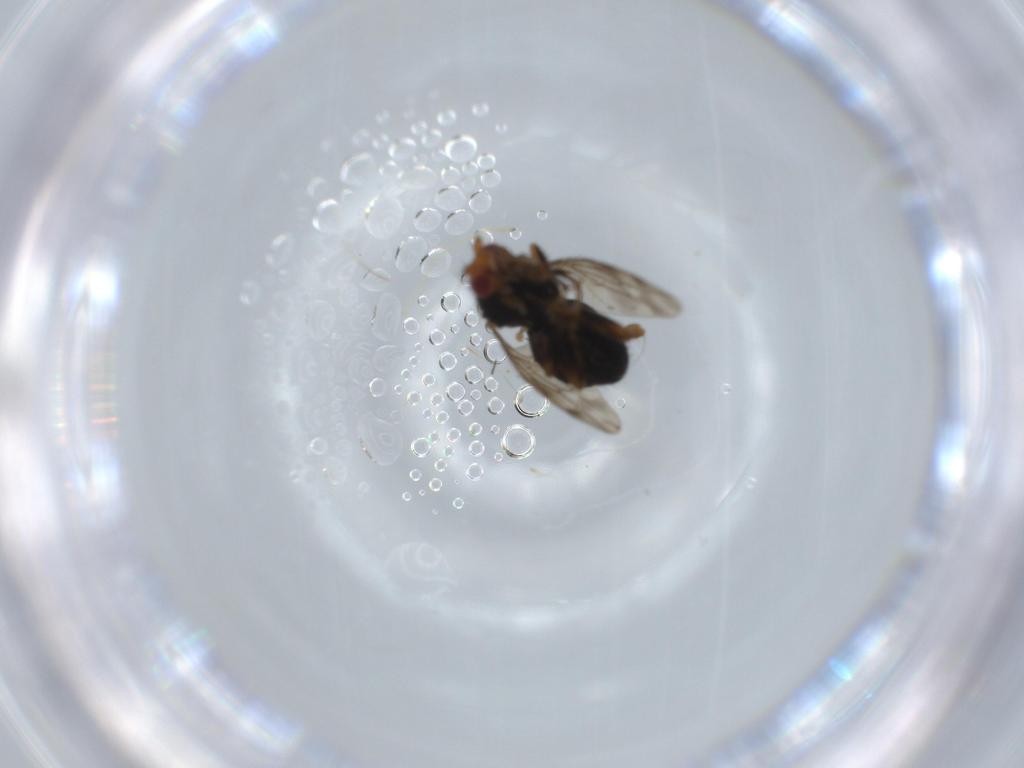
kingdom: Animalia
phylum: Arthropoda
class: Insecta
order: Diptera
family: Sphaeroceridae
